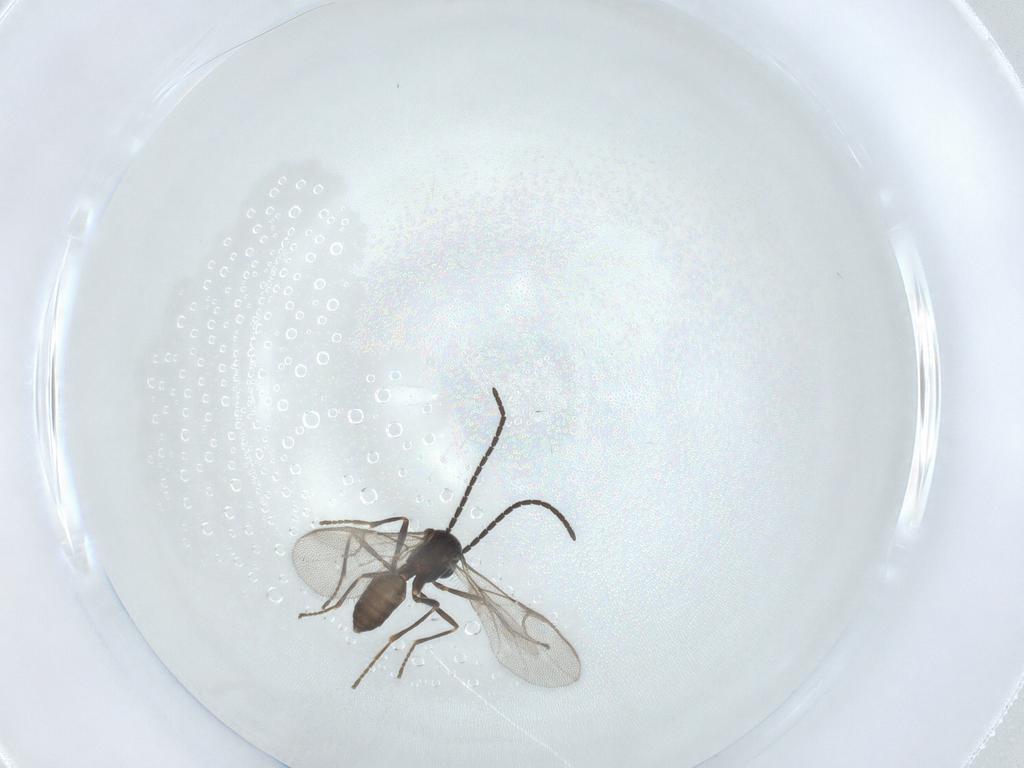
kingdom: Animalia
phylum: Arthropoda
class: Insecta
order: Hymenoptera
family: Braconidae
